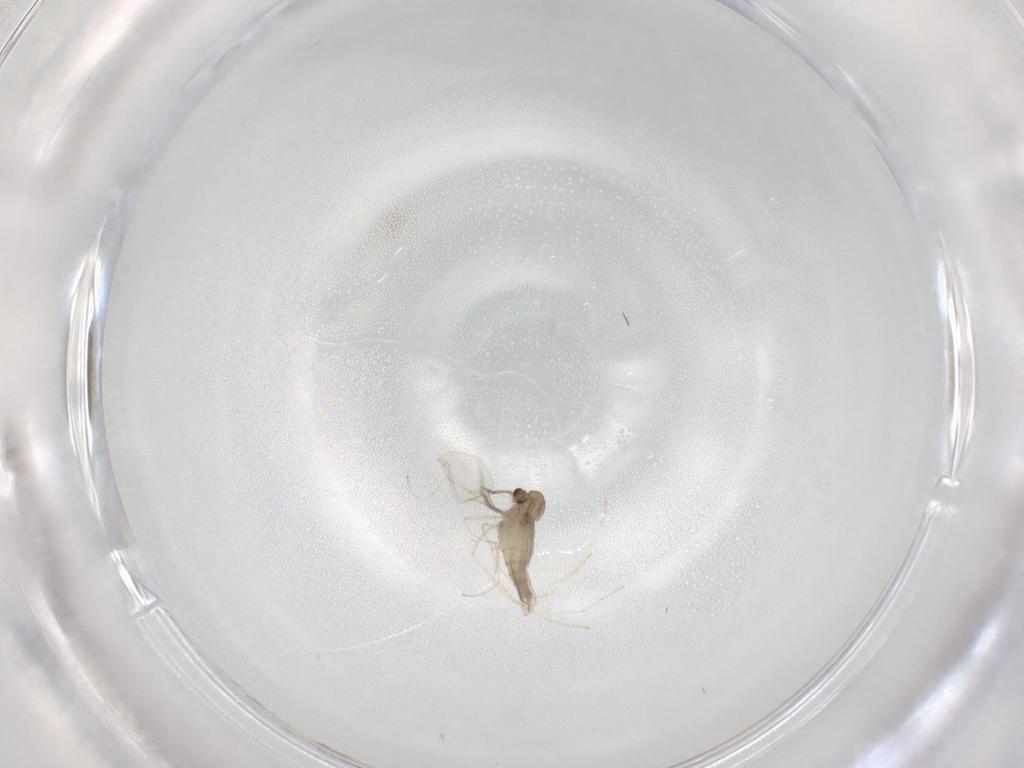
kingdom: Animalia
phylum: Arthropoda
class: Insecta
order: Diptera
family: Cecidomyiidae
